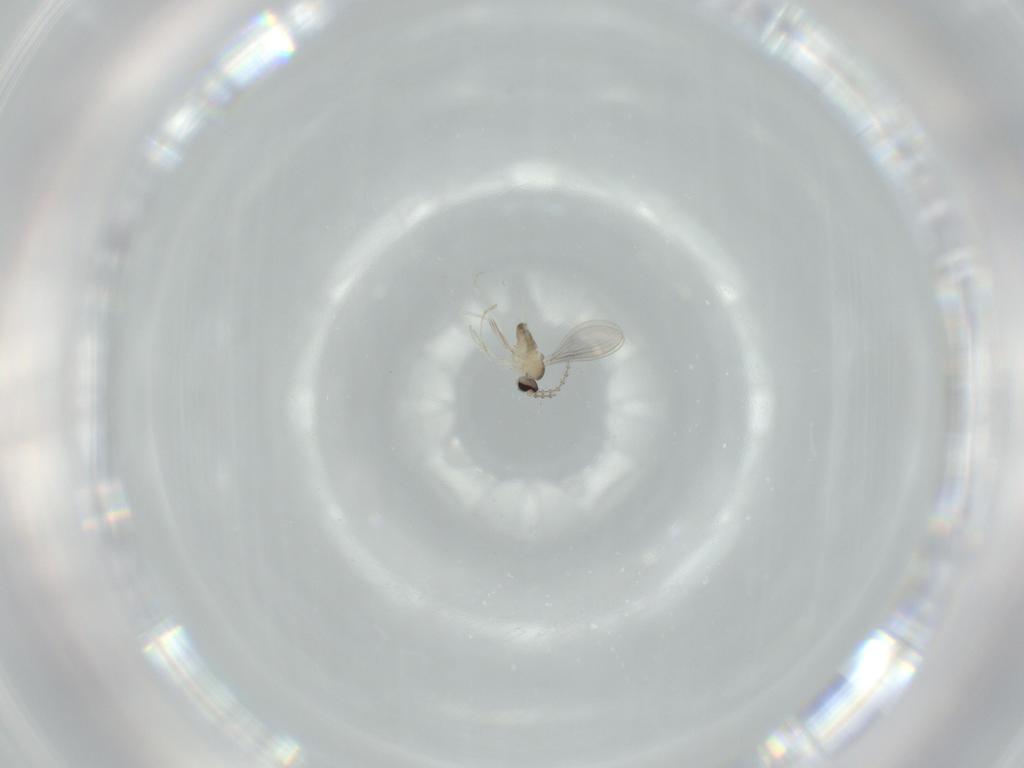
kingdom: Animalia
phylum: Arthropoda
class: Insecta
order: Diptera
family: Cecidomyiidae
